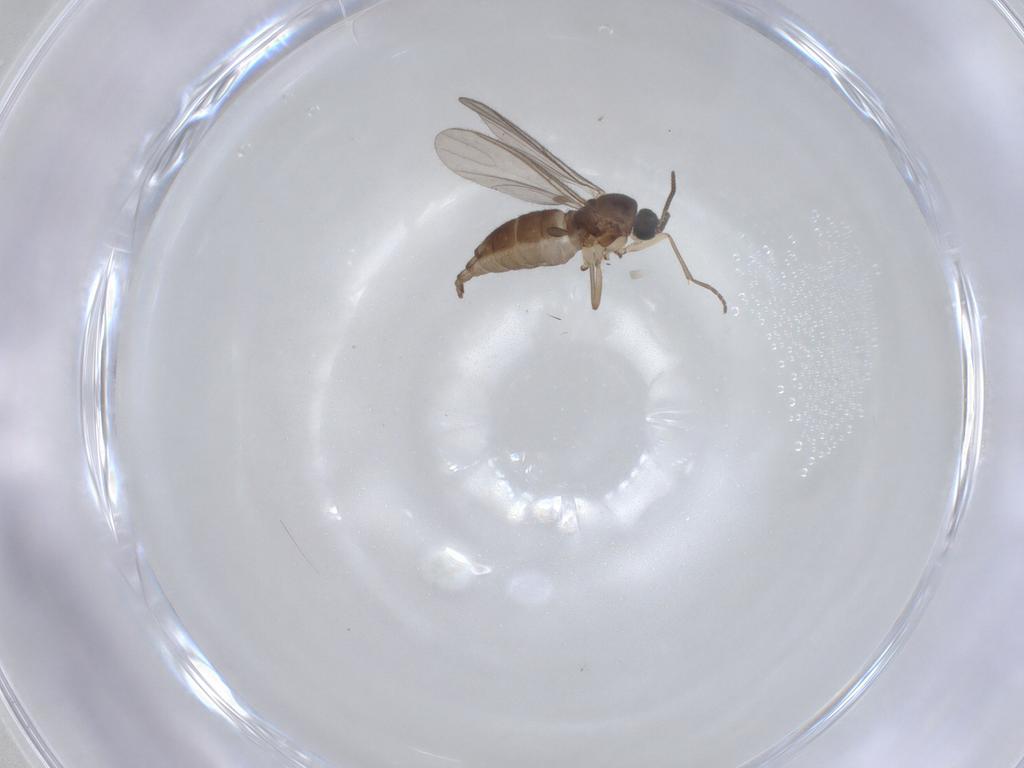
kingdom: Animalia
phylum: Arthropoda
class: Insecta
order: Diptera
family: Sciaridae
